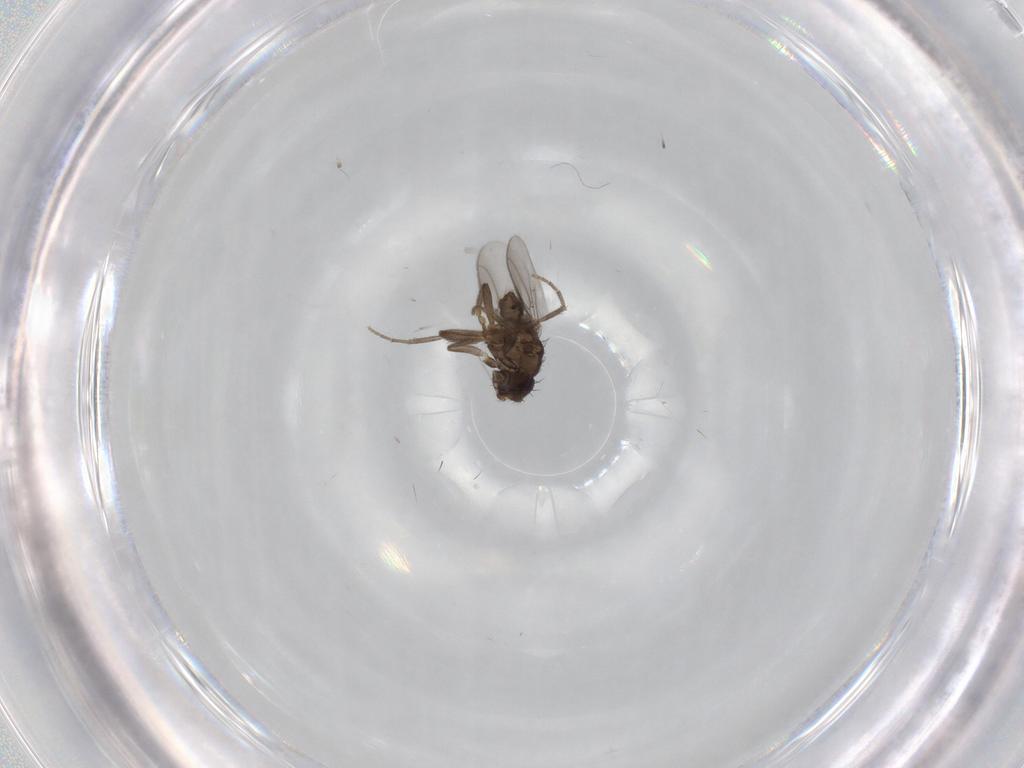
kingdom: Animalia
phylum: Arthropoda
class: Insecta
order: Diptera
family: Sphaeroceridae
